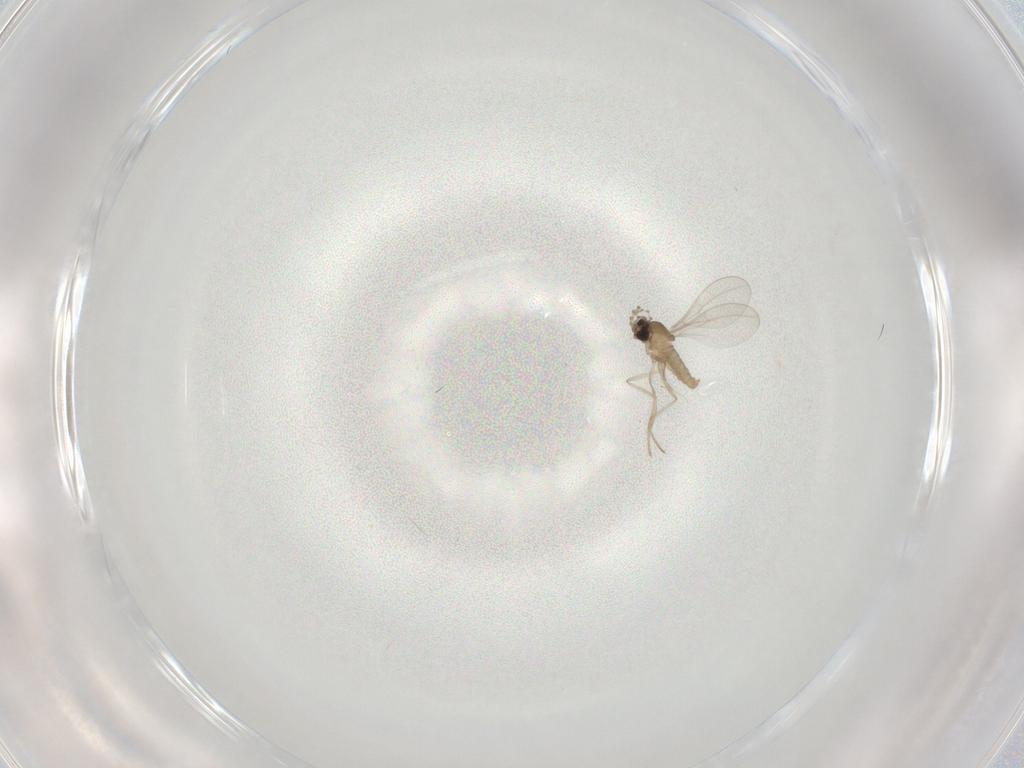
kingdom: Animalia
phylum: Arthropoda
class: Insecta
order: Diptera
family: Cecidomyiidae
